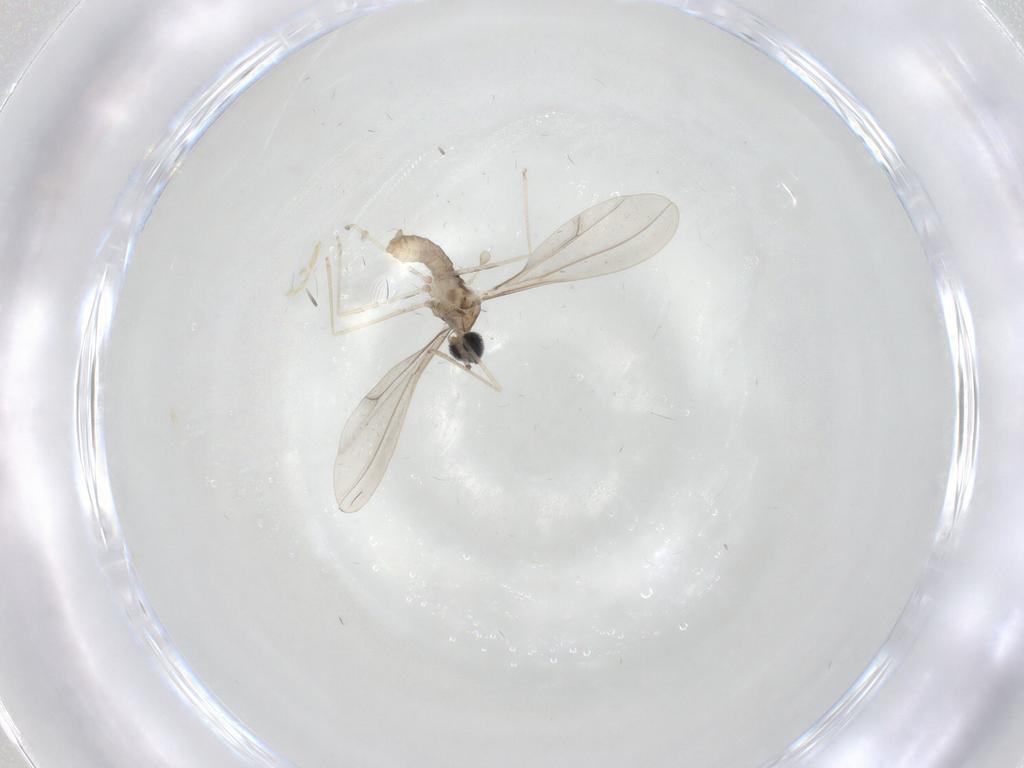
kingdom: Animalia
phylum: Arthropoda
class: Insecta
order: Diptera
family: Cecidomyiidae
